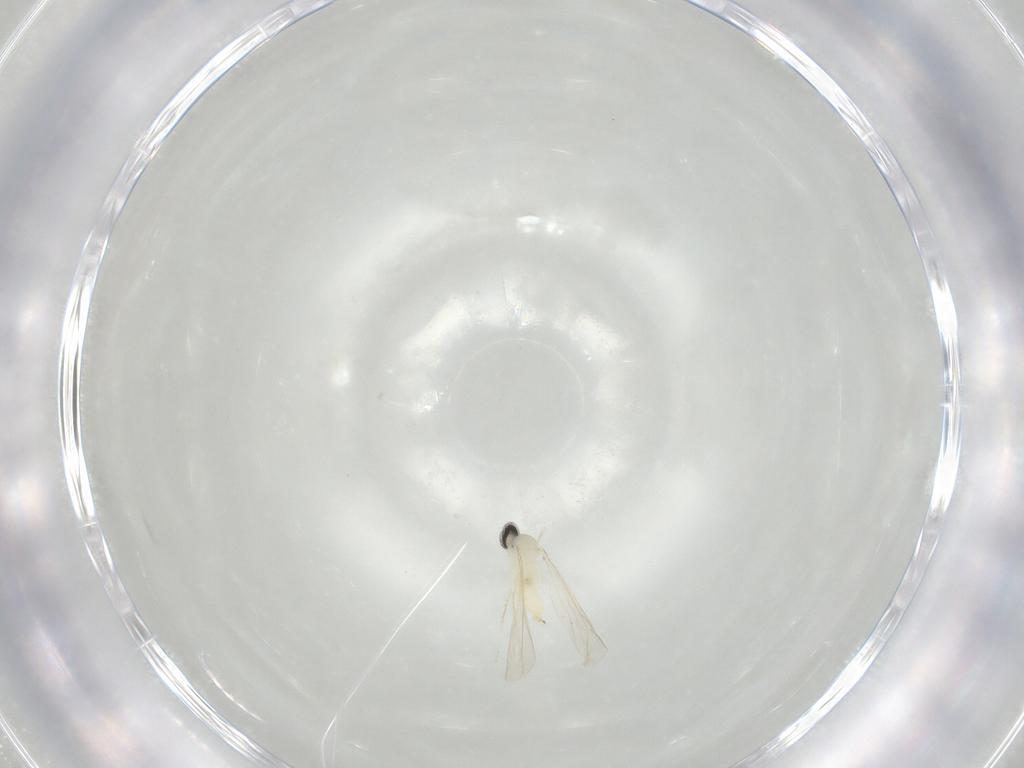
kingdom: Animalia
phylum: Arthropoda
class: Insecta
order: Diptera
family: Cecidomyiidae
